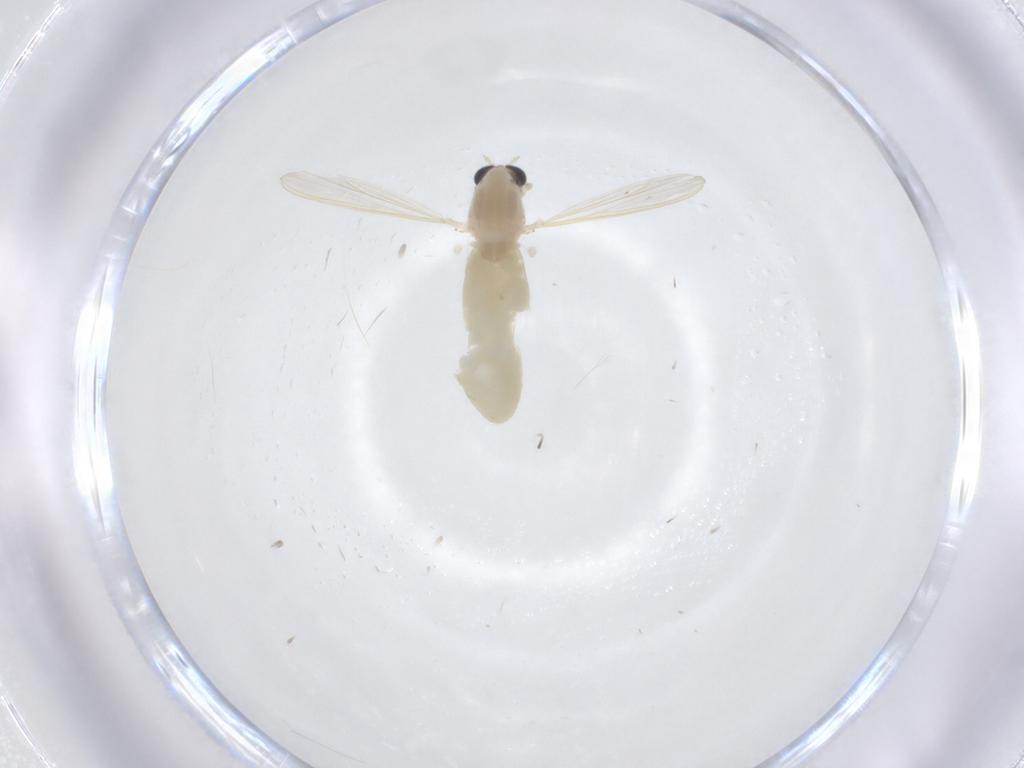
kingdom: Animalia
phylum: Arthropoda
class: Insecta
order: Diptera
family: Chironomidae
